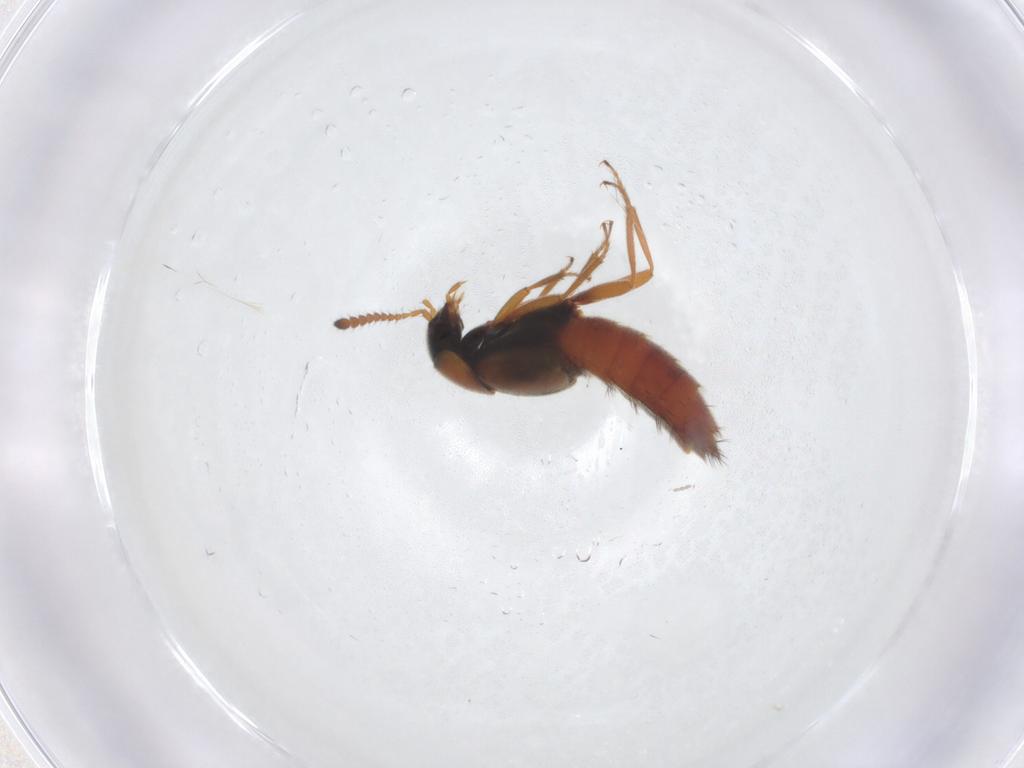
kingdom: Animalia
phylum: Arthropoda
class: Insecta
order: Coleoptera
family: Staphylinidae
